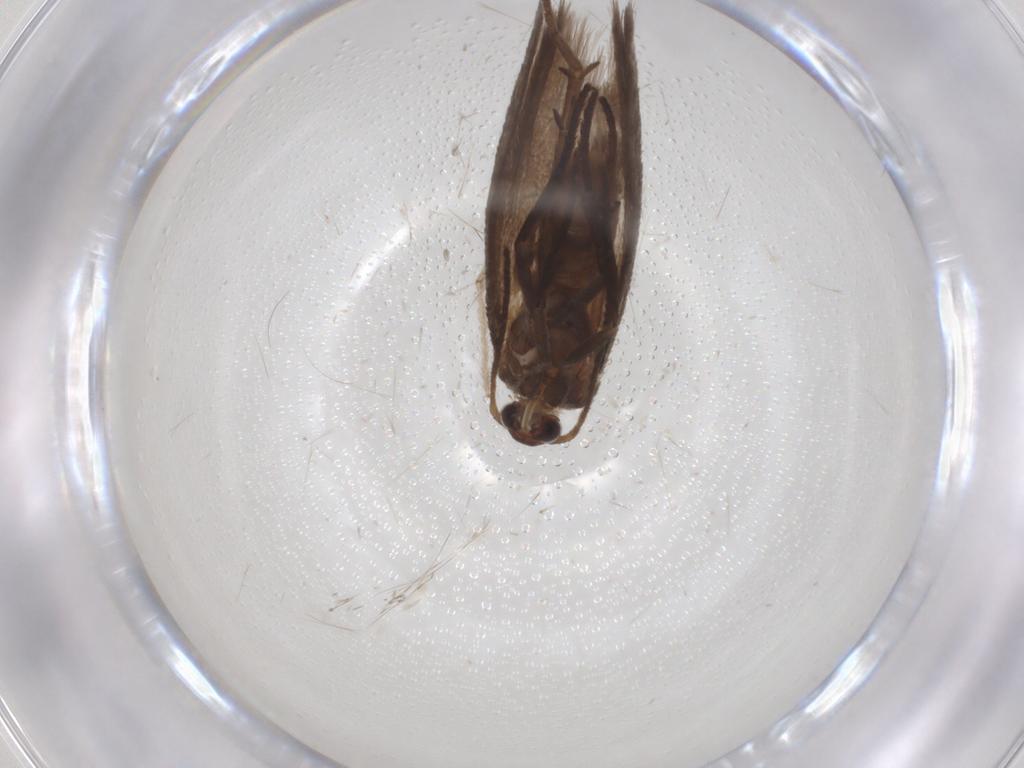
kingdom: Animalia
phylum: Arthropoda
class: Insecta
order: Lepidoptera
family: Limacodidae
